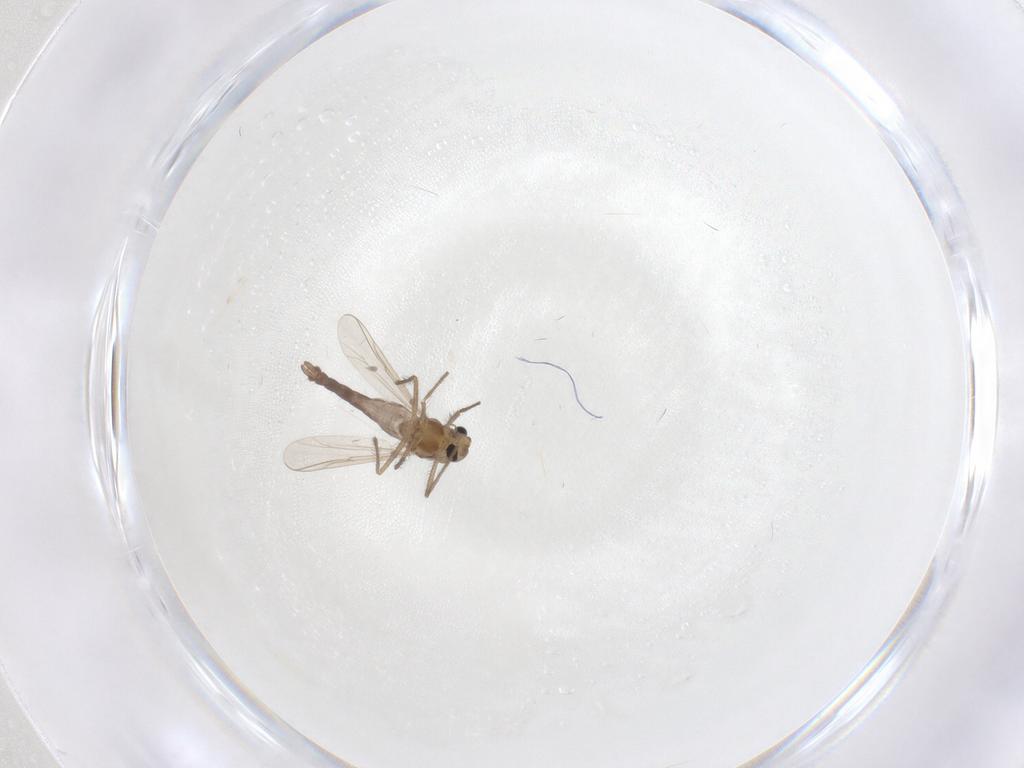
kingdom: Animalia
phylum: Arthropoda
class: Insecta
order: Diptera
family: Chironomidae
